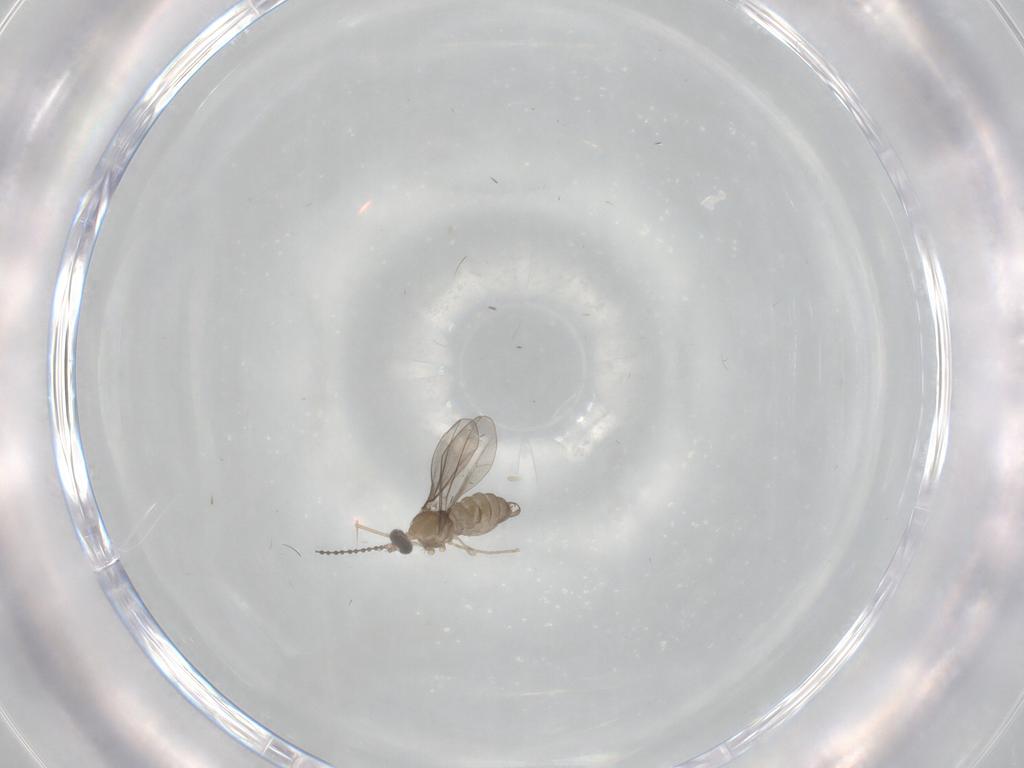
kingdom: Animalia
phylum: Arthropoda
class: Insecta
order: Diptera
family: Cecidomyiidae
